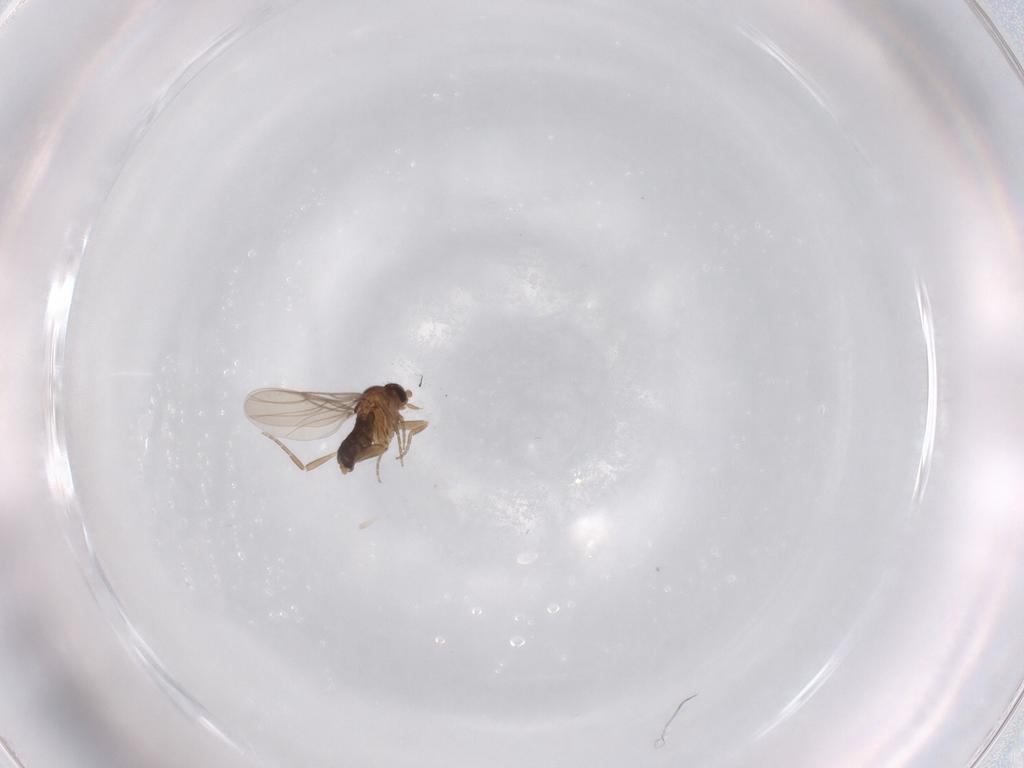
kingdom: Animalia
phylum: Arthropoda
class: Insecta
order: Diptera
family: Phoridae
